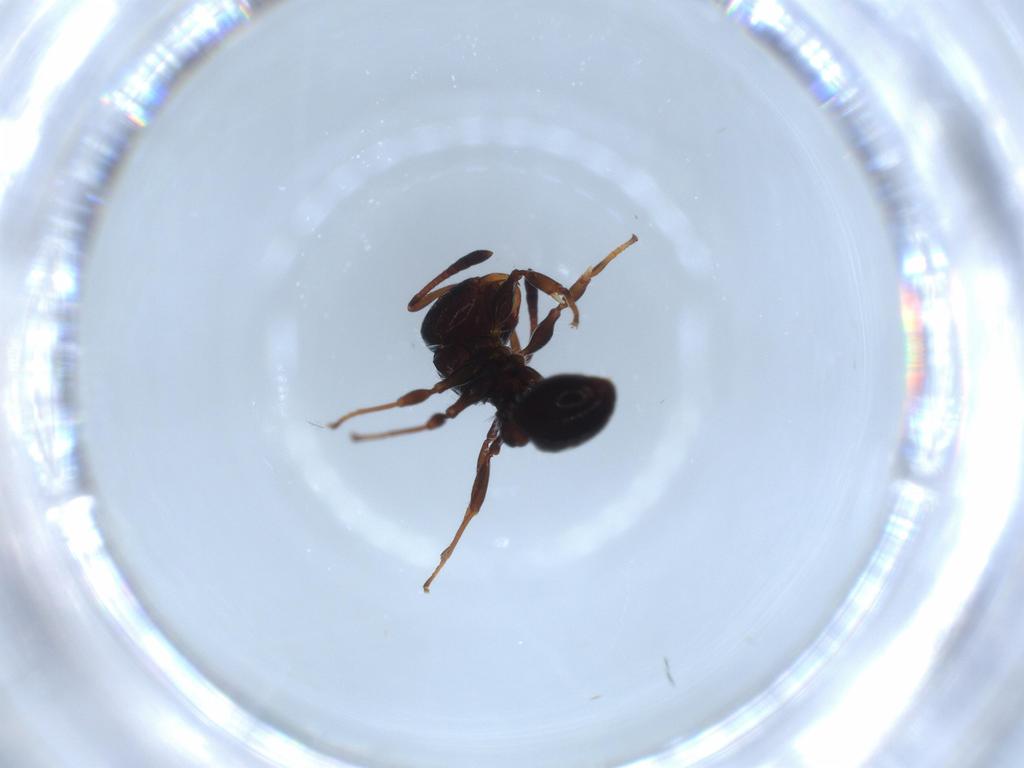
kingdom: Animalia
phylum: Arthropoda
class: Insecta
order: Hymenoptera
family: Formicidae
